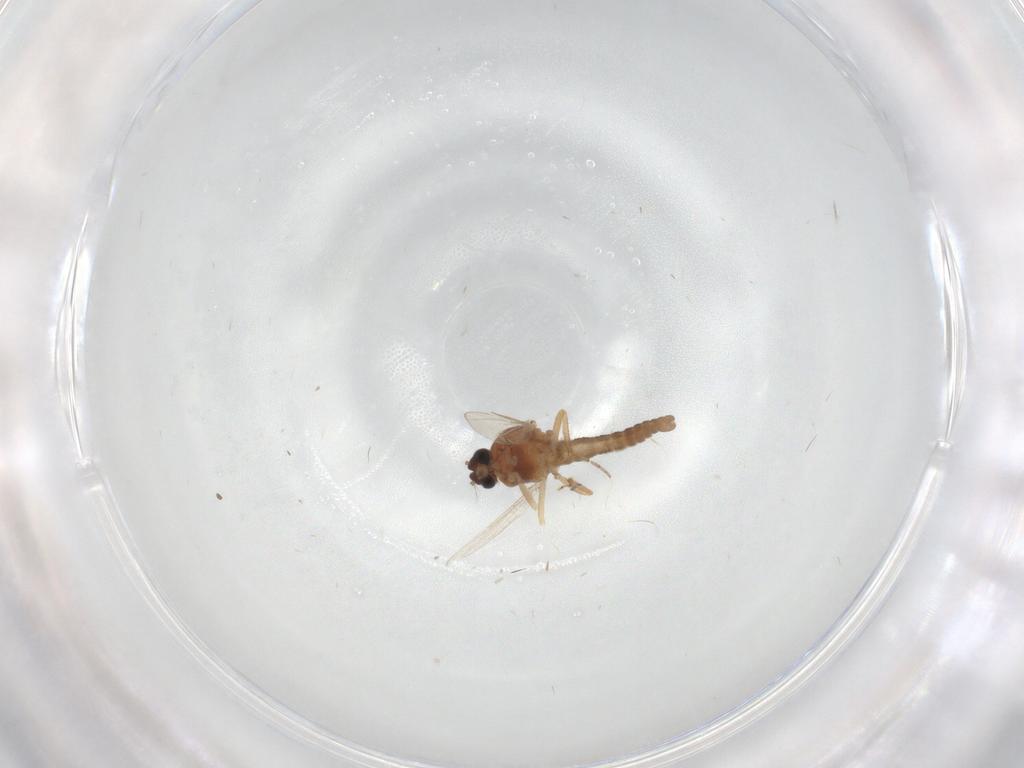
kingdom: Animalia
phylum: Arthropoda
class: Insecta
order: Diptera
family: Ceratopogonidae
